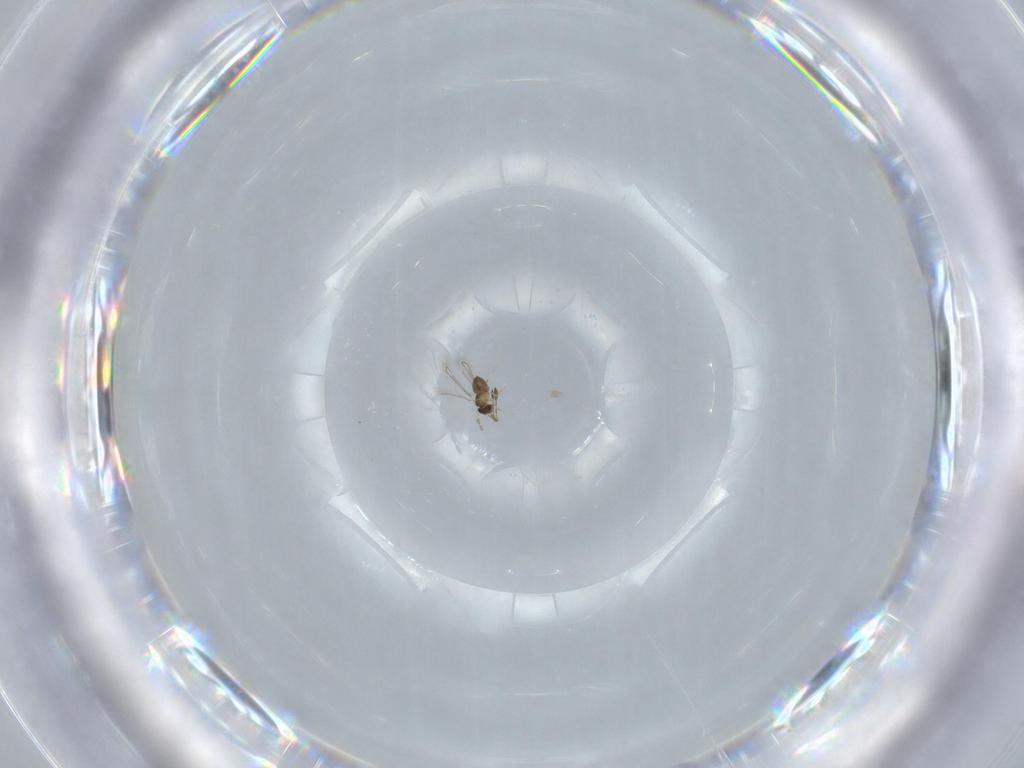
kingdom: Animalia
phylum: Arthropoda
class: Insecta
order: Hymenoptera
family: Mymaridae
